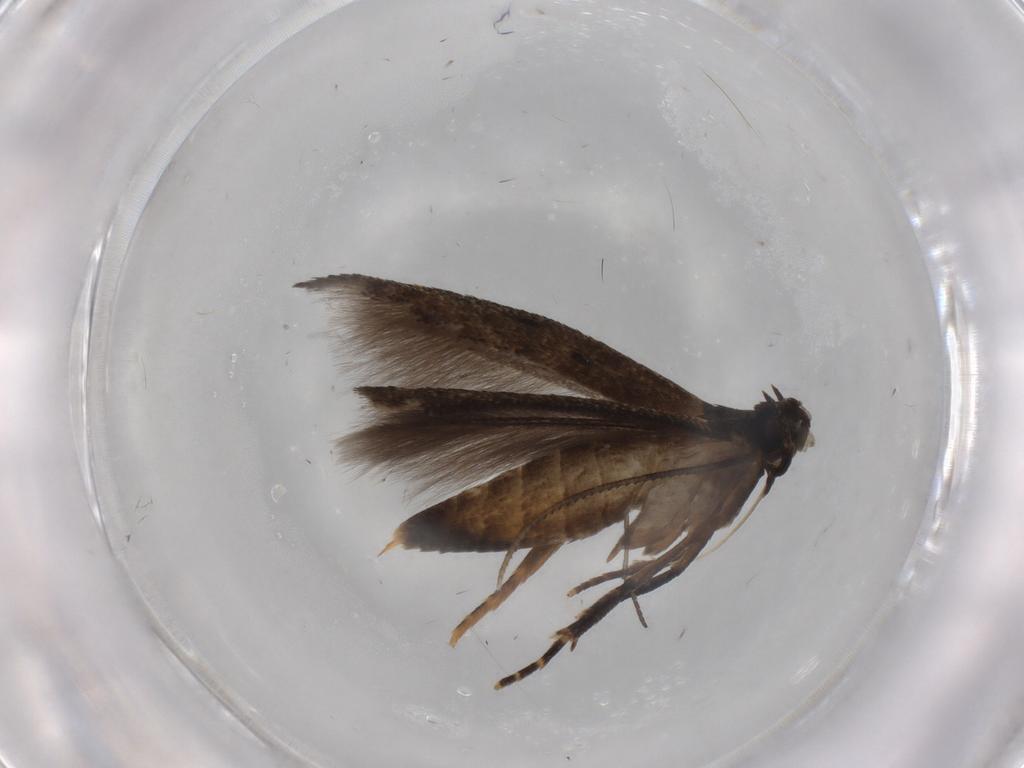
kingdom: Animalia
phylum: Arthropoda
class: Insecta
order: Lepidoptera
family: Cosmopterigidae
